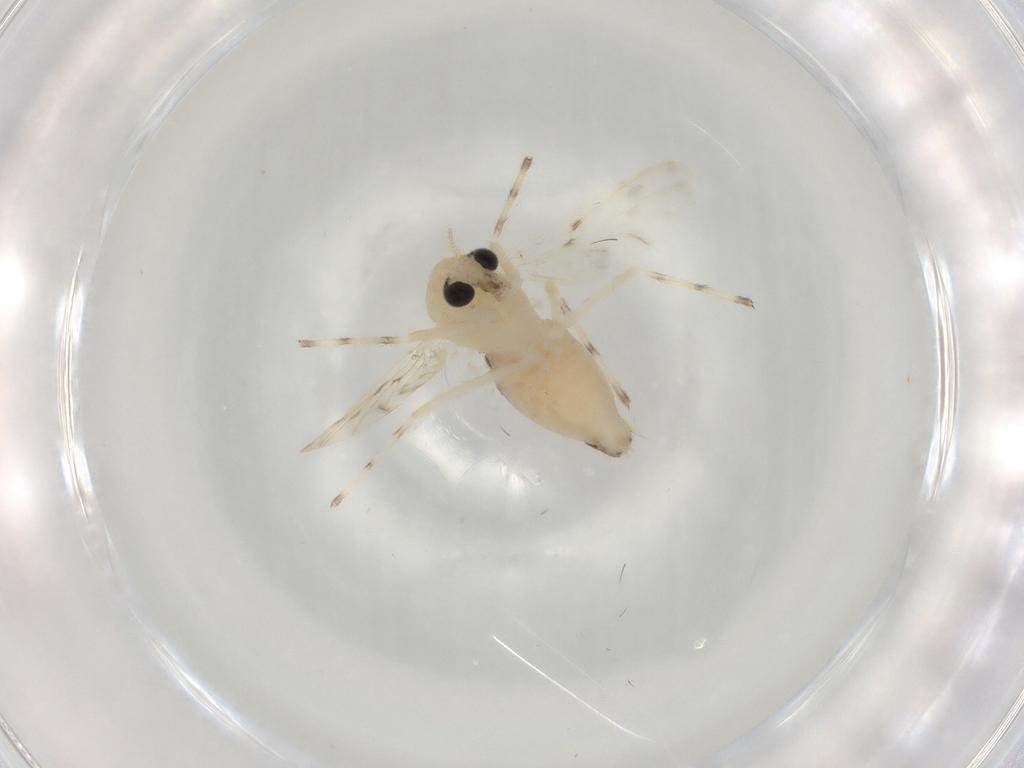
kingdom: Animalia
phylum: Arthropoda
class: Insecta
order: Diptera
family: Chironomidae
